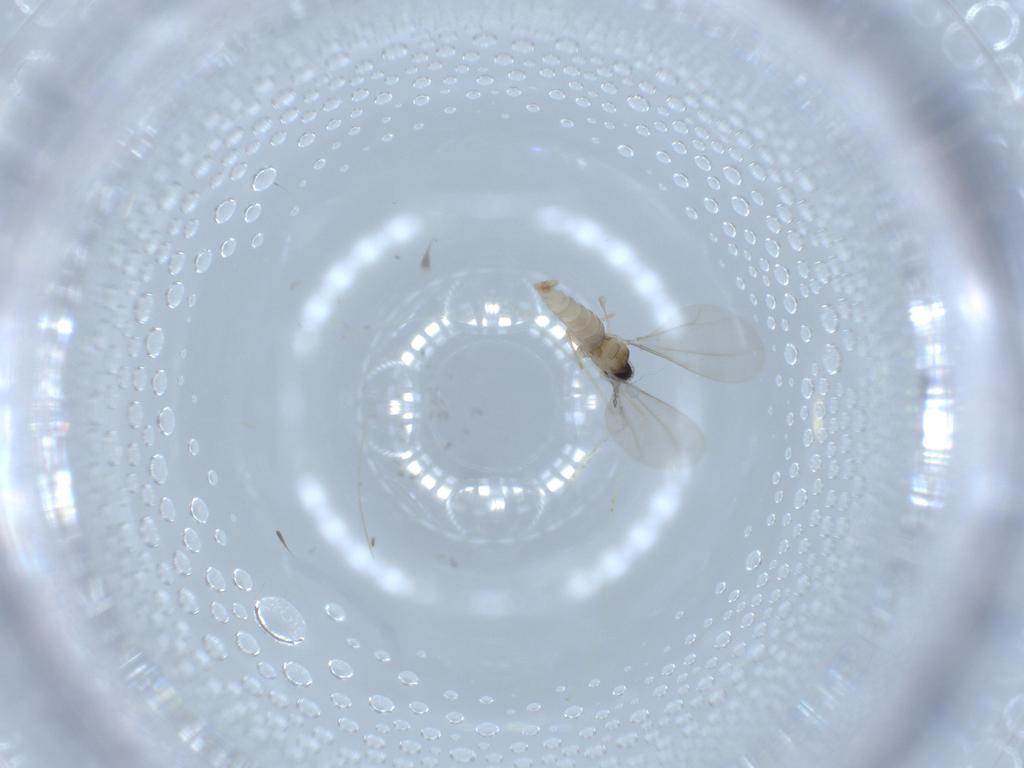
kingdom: Animalia
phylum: Arthropoda
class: Insecta
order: Diptera
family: Cecidomyiidae
